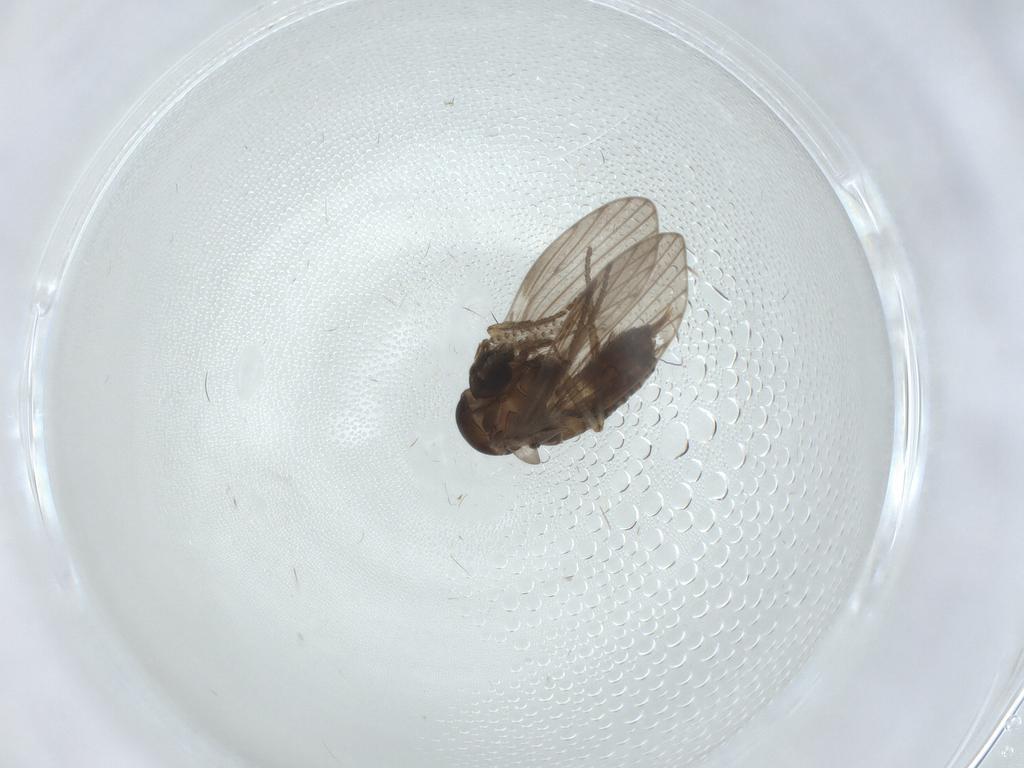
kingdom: Animalia
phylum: Arthropoda
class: Insecta
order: Diptera
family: Psychodidae
